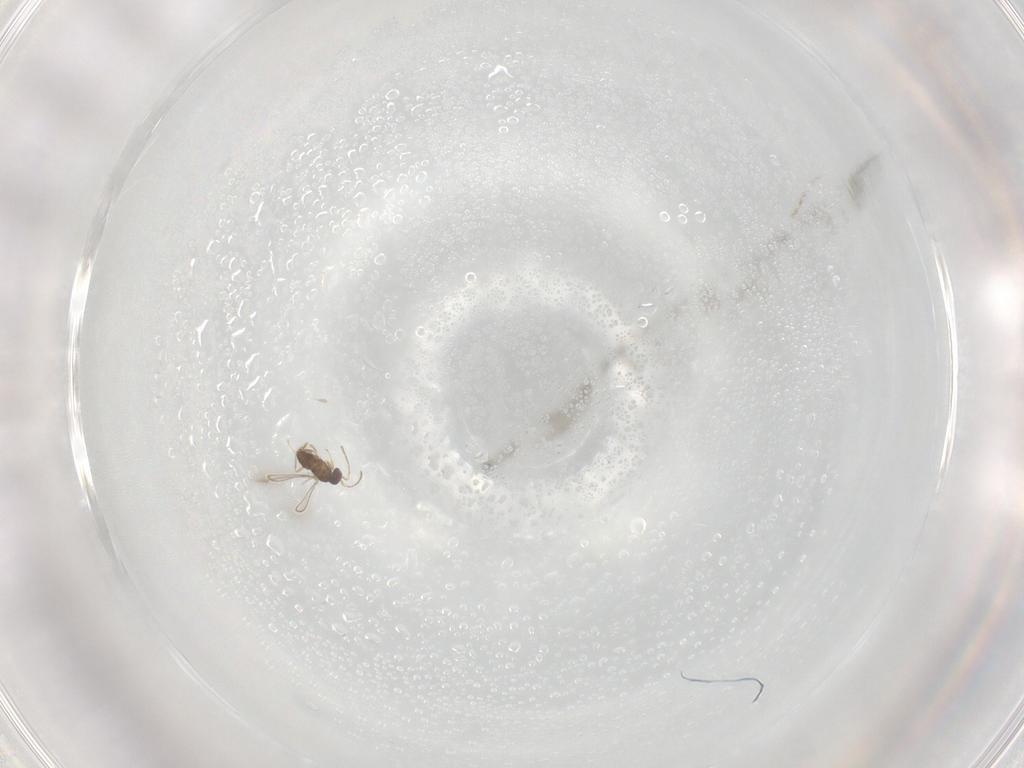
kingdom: Animalia
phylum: Arthropoda
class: Insecta
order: Hymenoptera
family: Mymaridae
